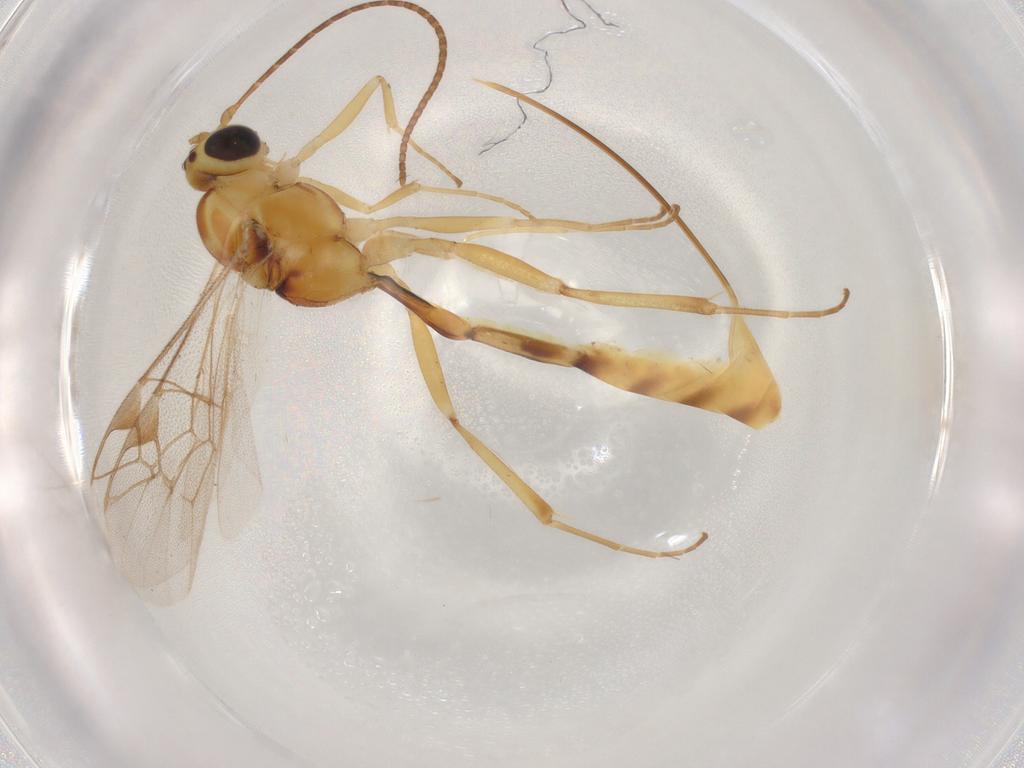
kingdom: Animalia
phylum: Arthropoda
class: Insecta
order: Hymenoptera
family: Ichneumonidae
